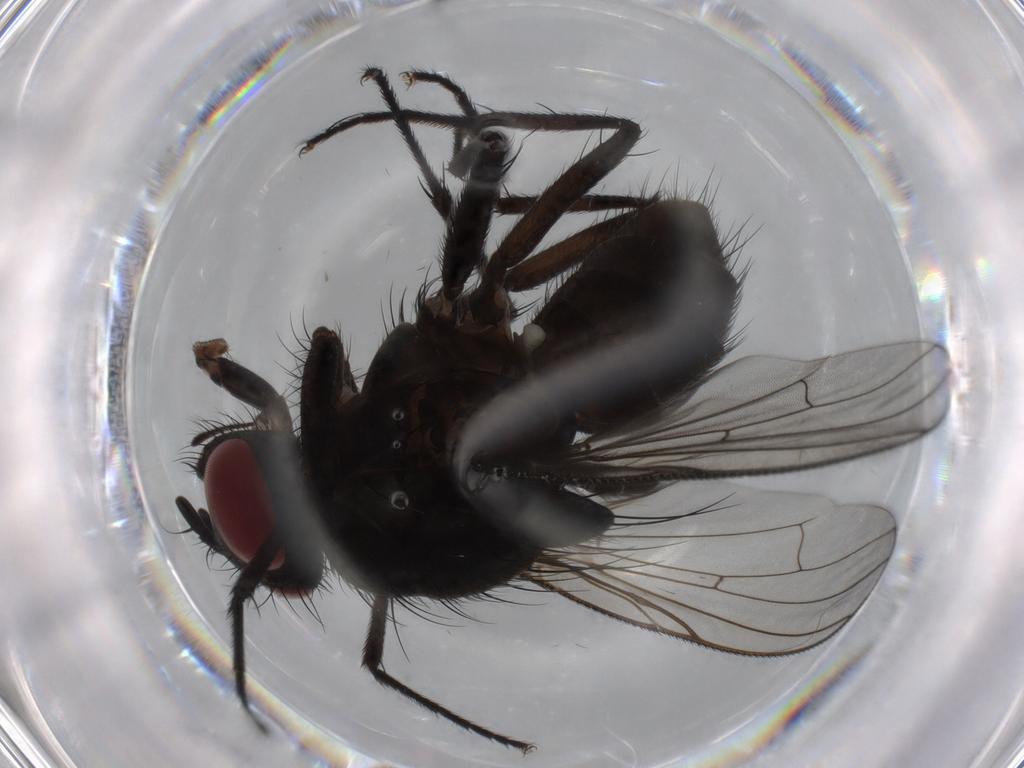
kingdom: Animalia
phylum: Arthropoda
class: Insecta
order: Diptera
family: Muscidae
